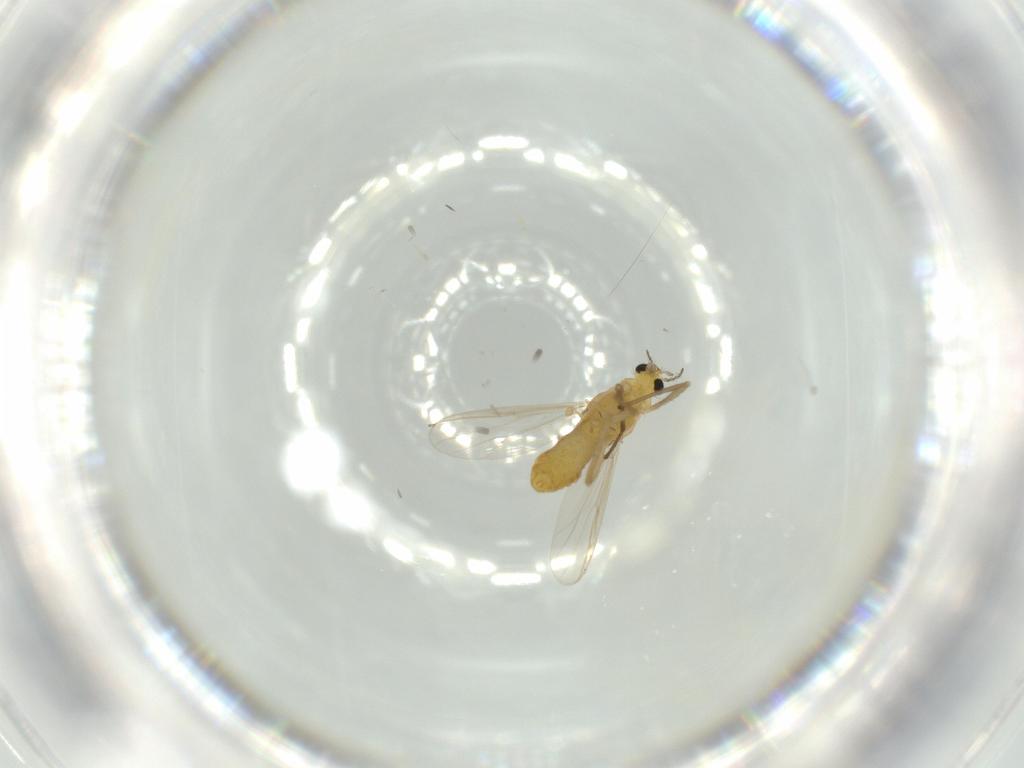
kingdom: Animalia
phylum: Arthropoda
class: Insecta
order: Diptera
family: Chironomidae
